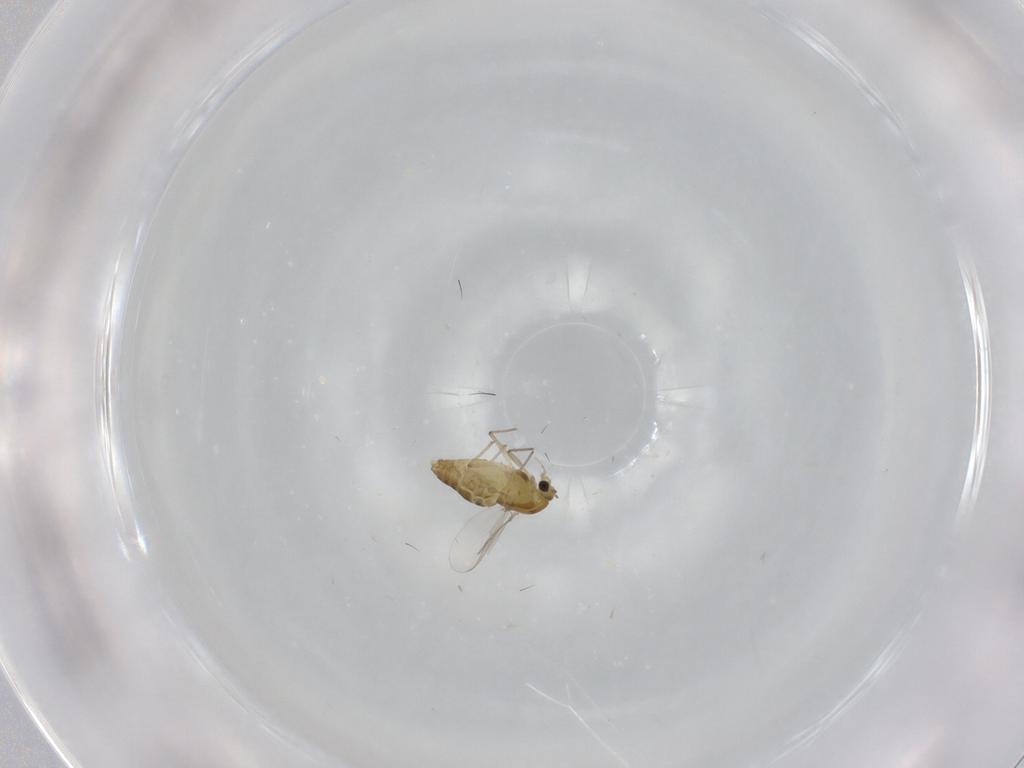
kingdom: Animalia
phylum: Arthropoda
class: Insecta
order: Diptera
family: Chironomidae
